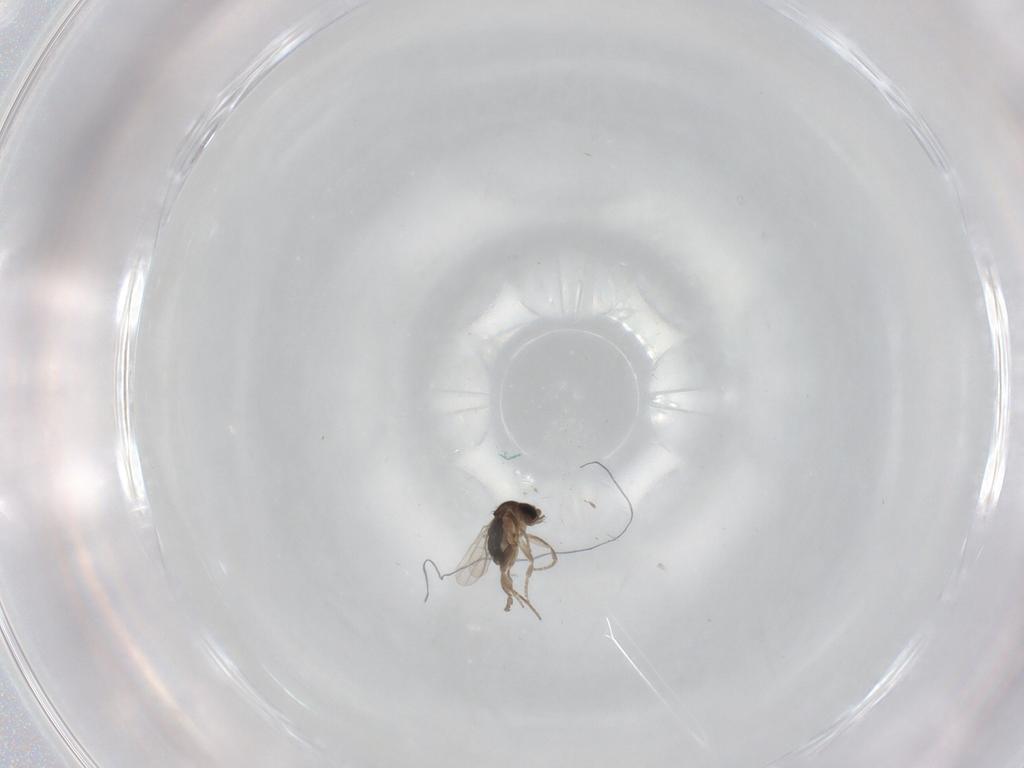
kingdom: Animalia
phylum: Arthropoda
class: Insecta
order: Diptera
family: Phoridae
